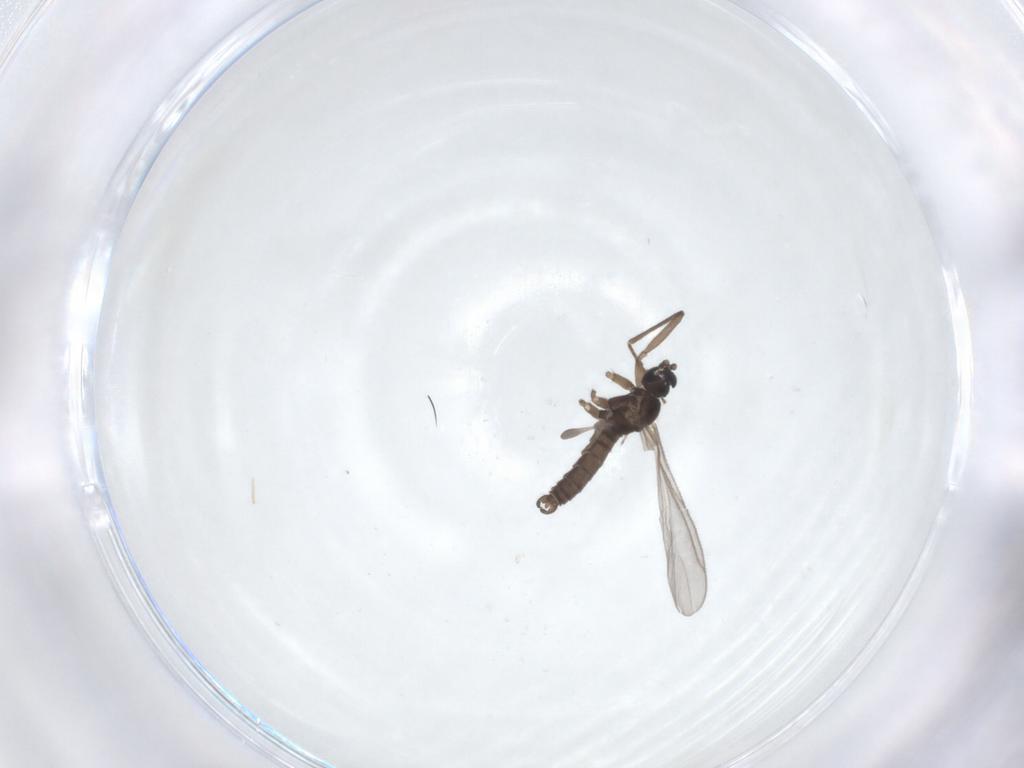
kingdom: Animalia
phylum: Arthropoda
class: Insecta
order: Diptera
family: Sciaridae
